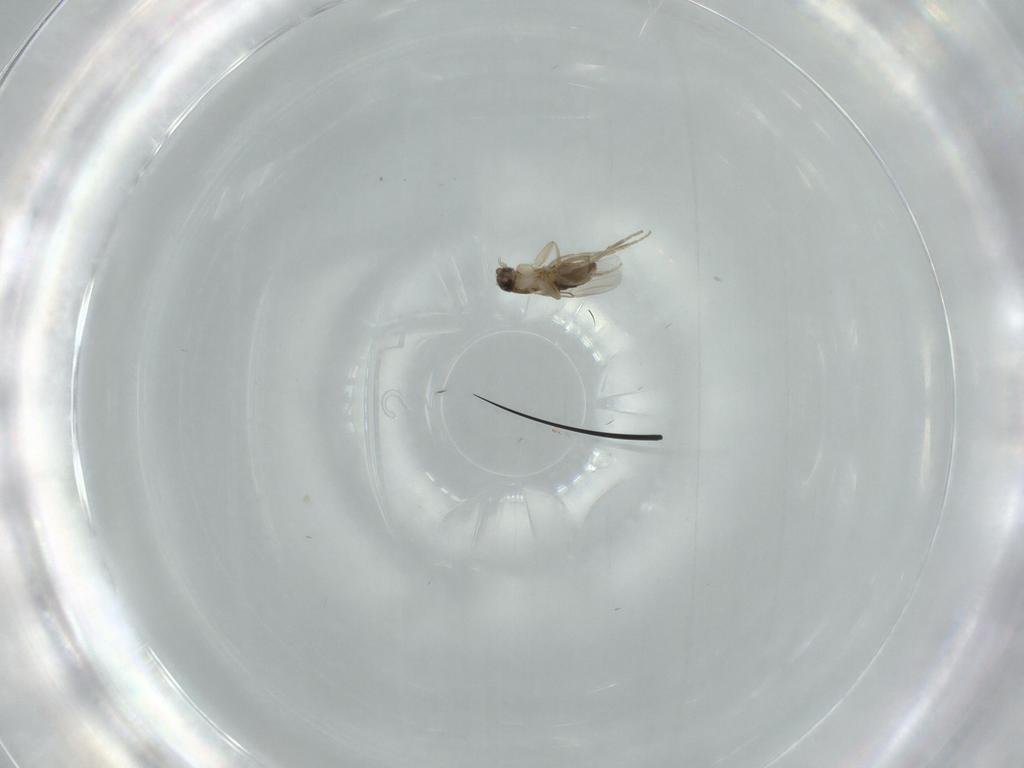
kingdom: Animalia
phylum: Arthropoda
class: Insecta
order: Diptera
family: Phoridae
